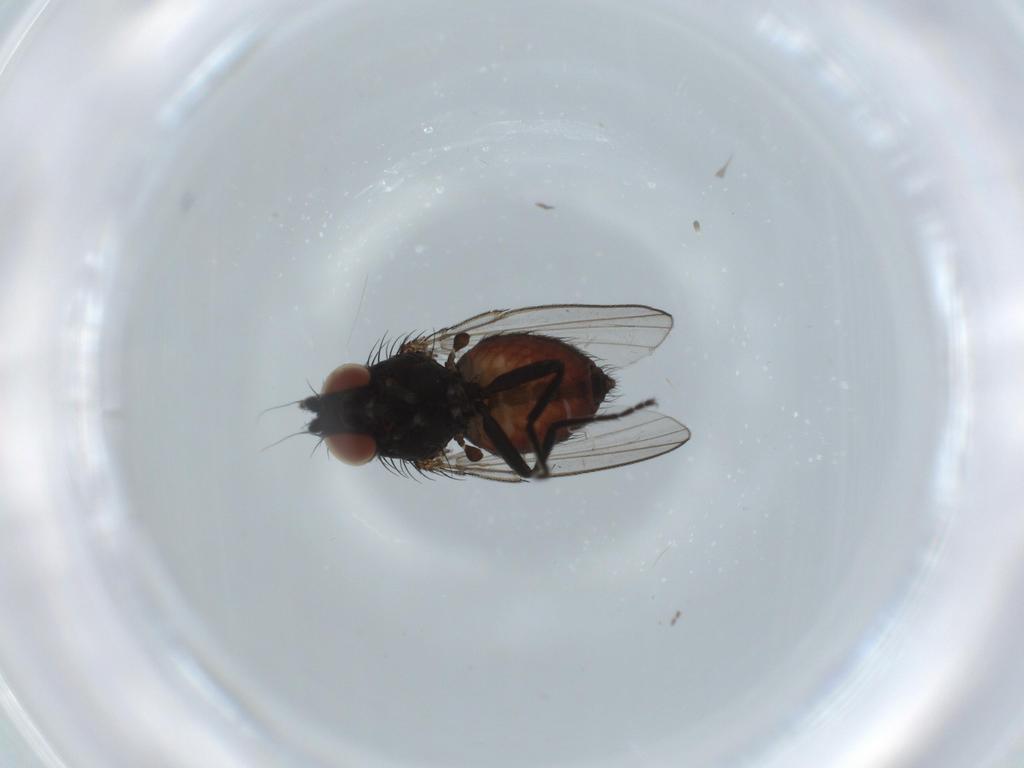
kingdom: Animalia
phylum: Arthropoda
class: Insecta
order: Diptera
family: Milichiidae
